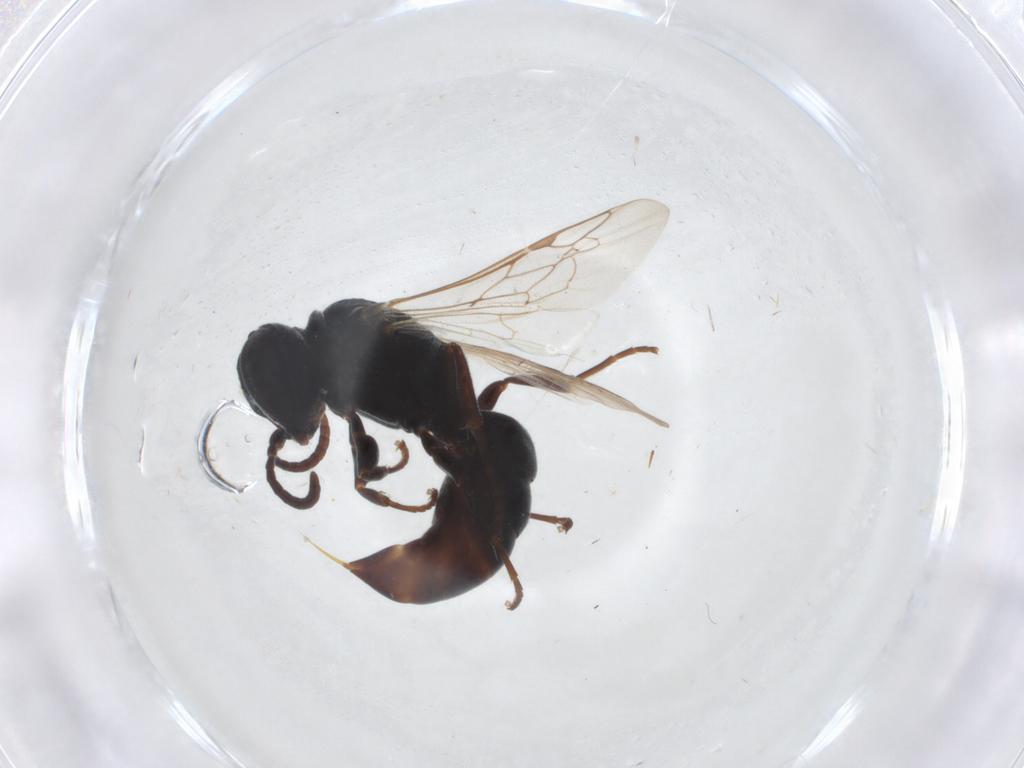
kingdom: Animalia
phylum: Arthropoda
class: Insecta
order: Hymenoptera
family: Crabronidae
